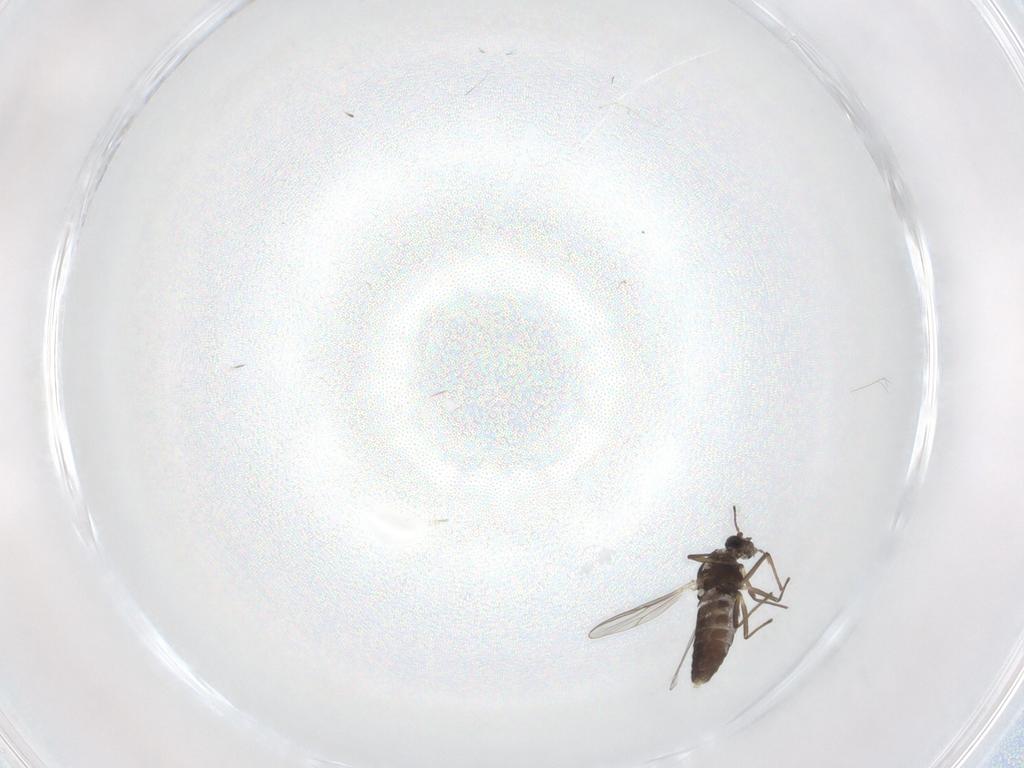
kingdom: Animalia
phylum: Arthropoda
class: Insecta
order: Diptera
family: Chironomidae
